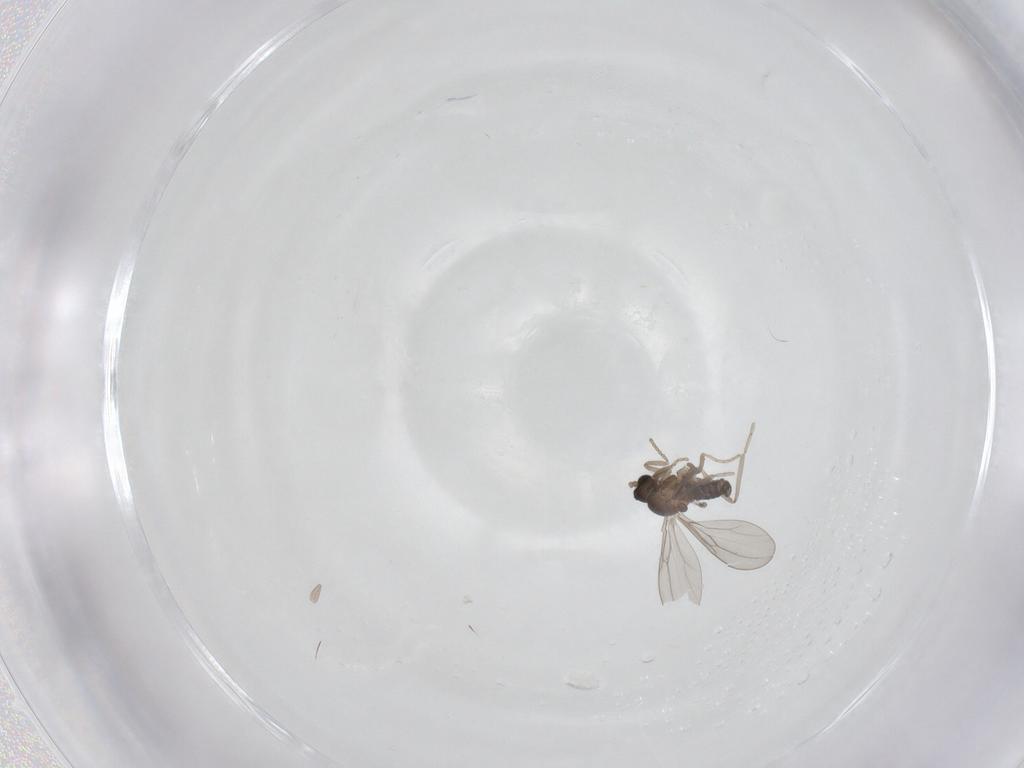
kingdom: Animalia
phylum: Arthropoda
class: Insecta
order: Diptera
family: Cecidomyiidae
